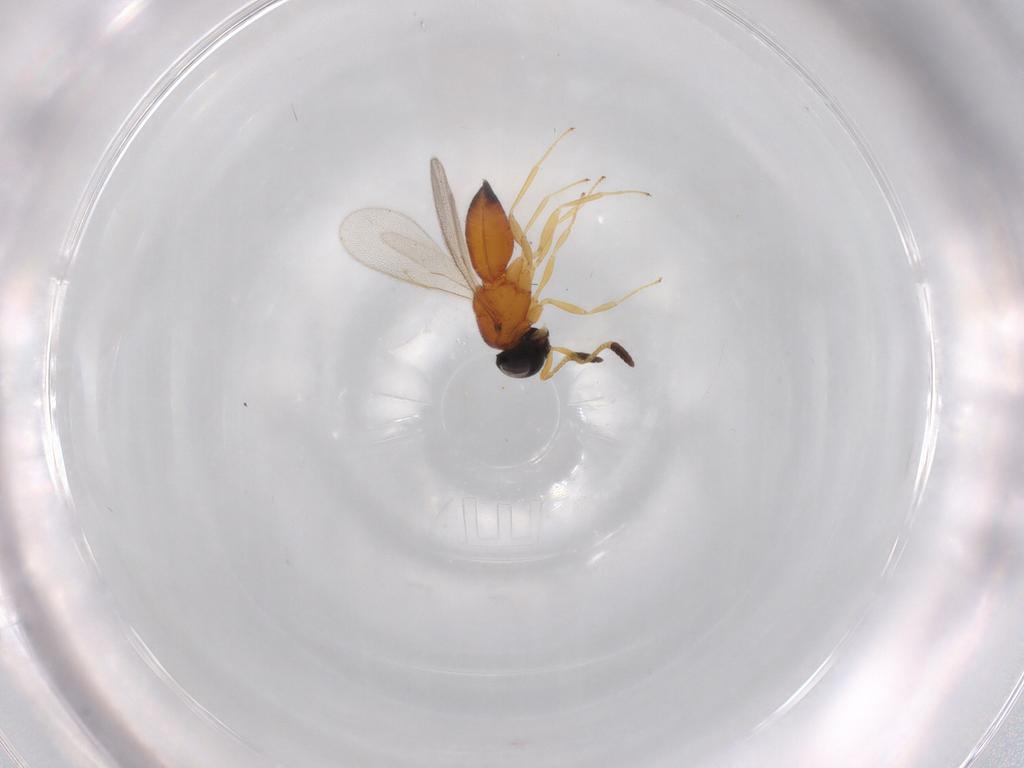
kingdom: Animalia
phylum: Arthropoda
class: Insecta
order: Hymenoptera
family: Scelionidae
